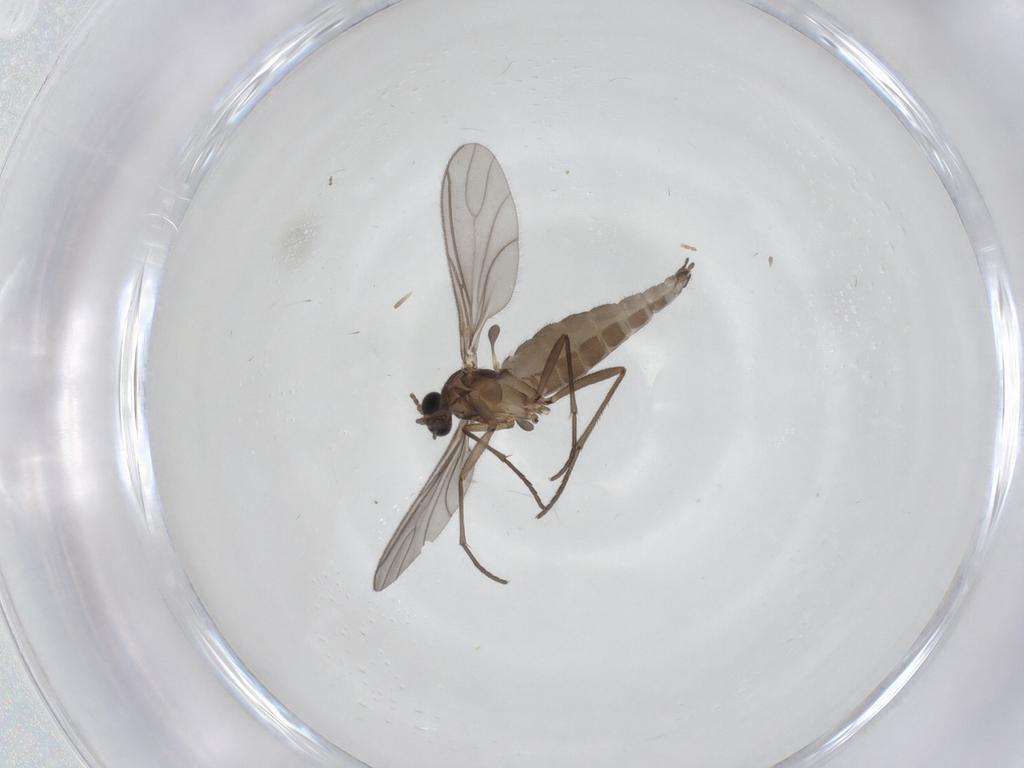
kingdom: Animalia
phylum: Arthropoda
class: Insecta
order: Diptera
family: Sciaridae
